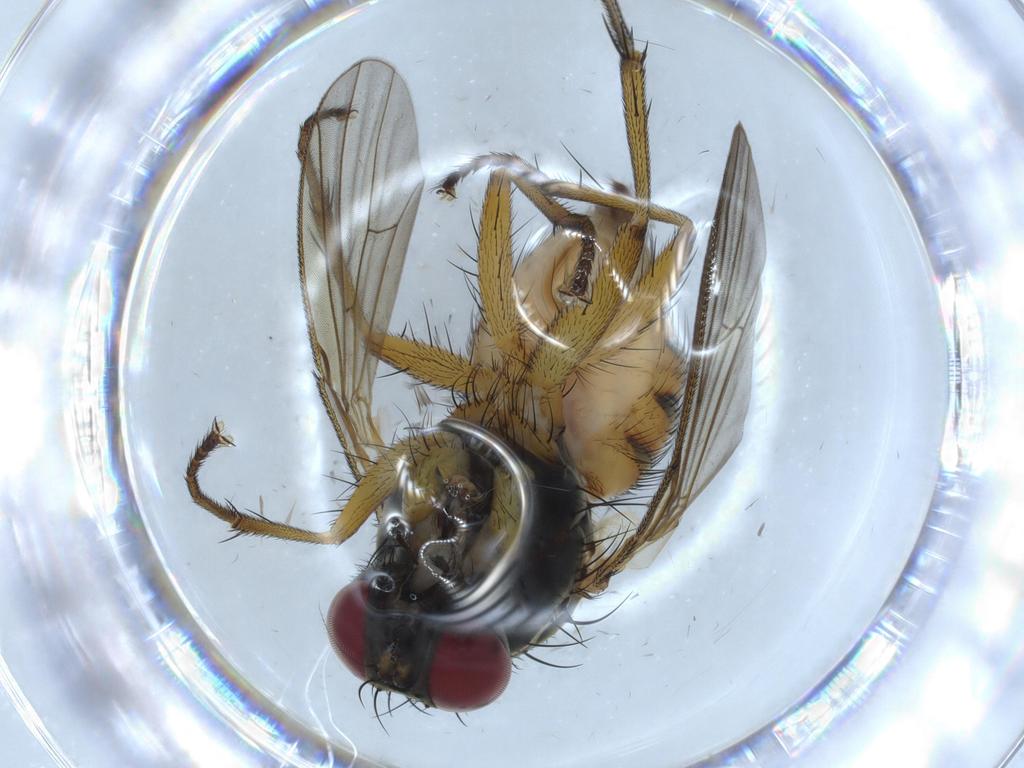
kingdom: Animalia
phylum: Arthropoda
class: Insecta
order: Diptera
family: Muscidae
